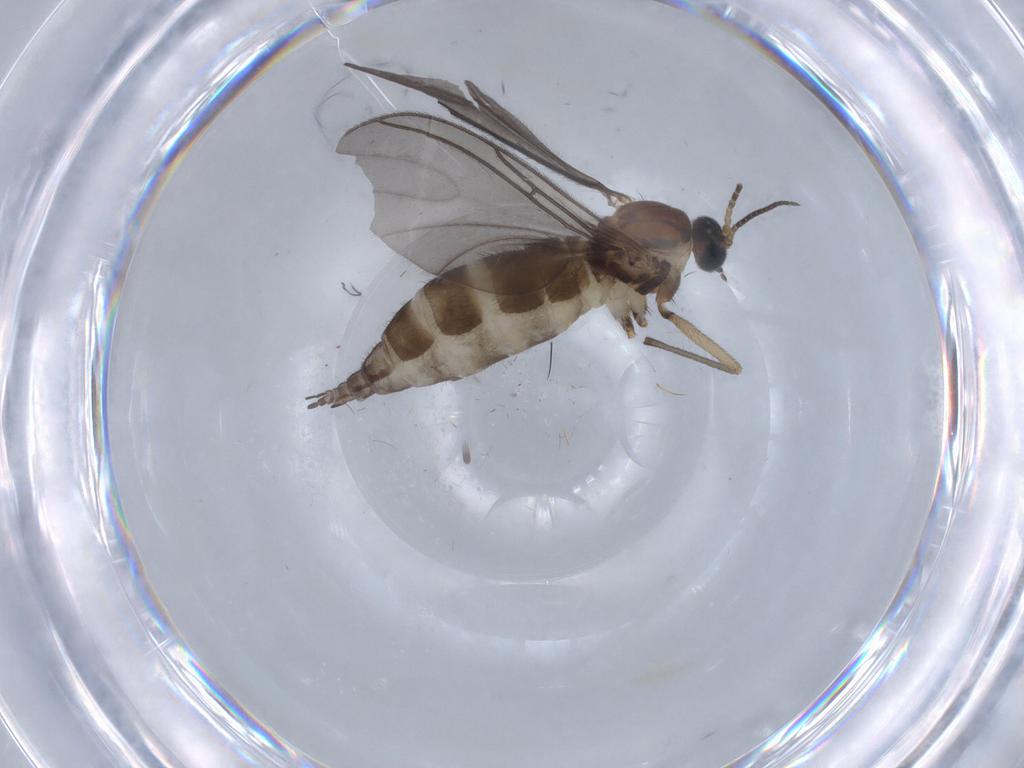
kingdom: Animalia
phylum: Arthropoda
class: Insecta
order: Diptera
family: Sciaridae
